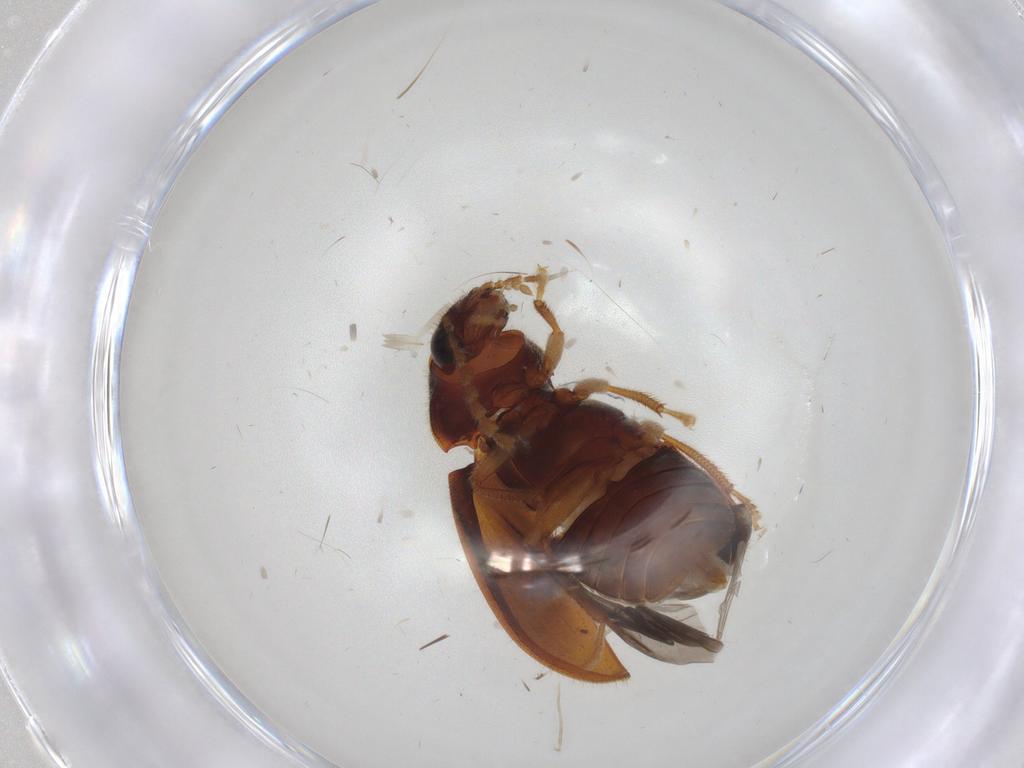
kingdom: Animalia
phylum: Arthropoda
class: Insecta
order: Coleoptera
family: Ptilodactylidae
